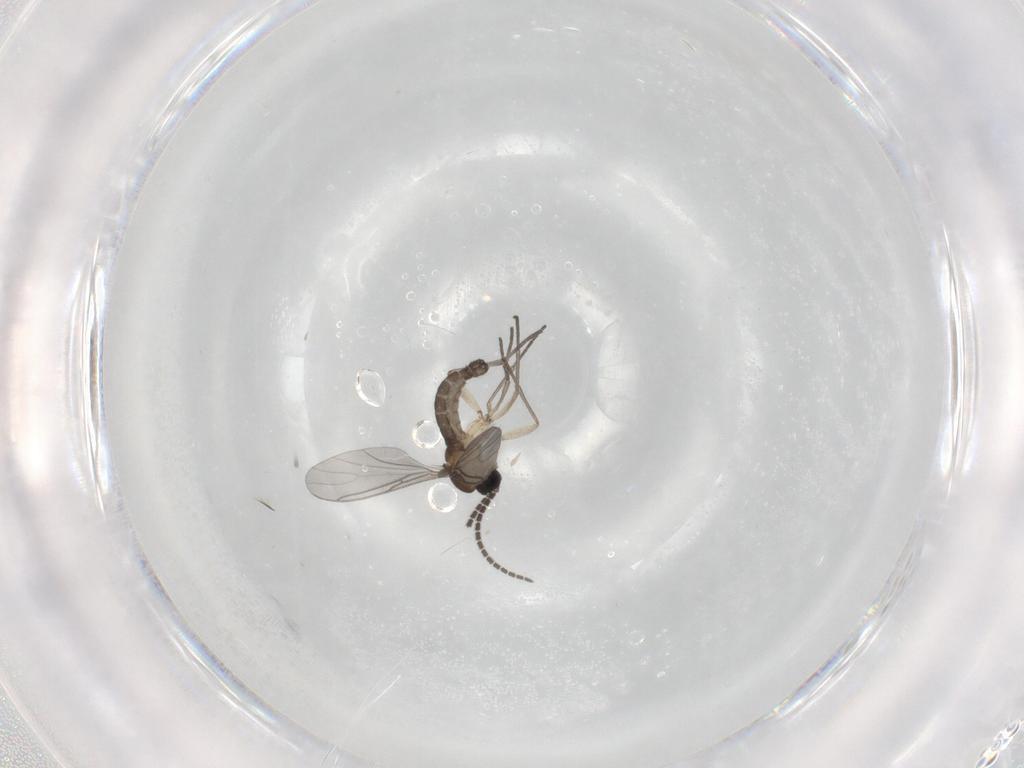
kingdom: Animalia
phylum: Arthropoda
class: Insecta
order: Diptera
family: Sciaridae
